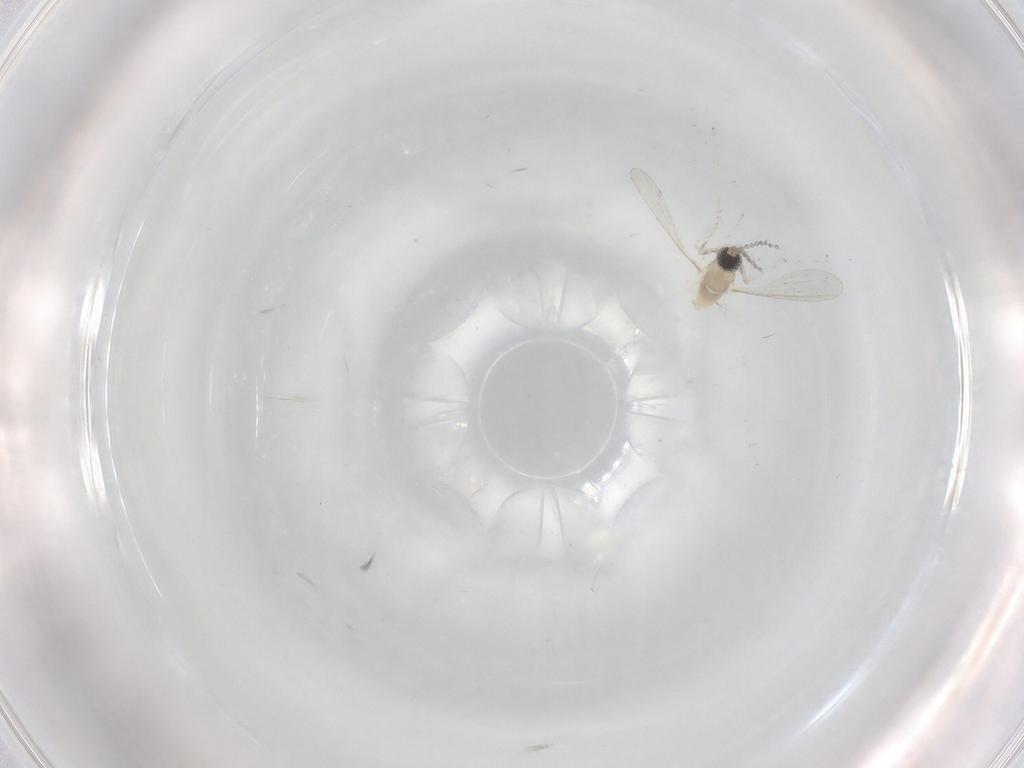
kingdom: Animalia
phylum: Arthropoda
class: Insecta
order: Diptera
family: Cecidomyiidae
